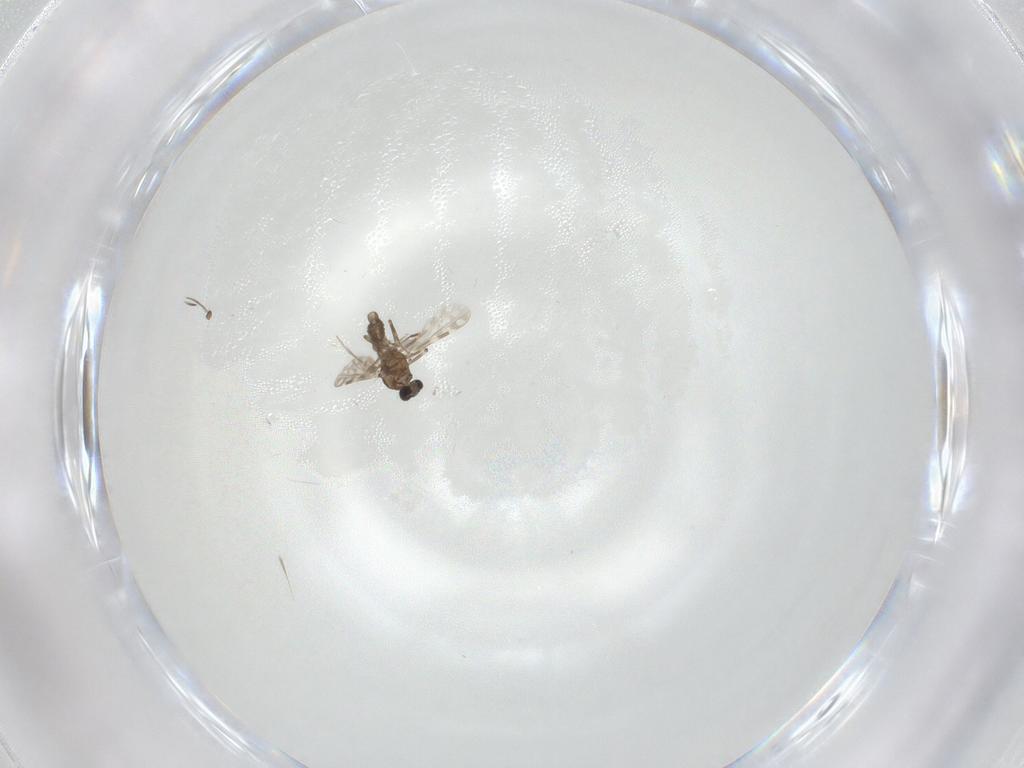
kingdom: Animalia
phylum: Arthropoda
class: Insecta
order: Diptera
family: Ceratopogonidae
